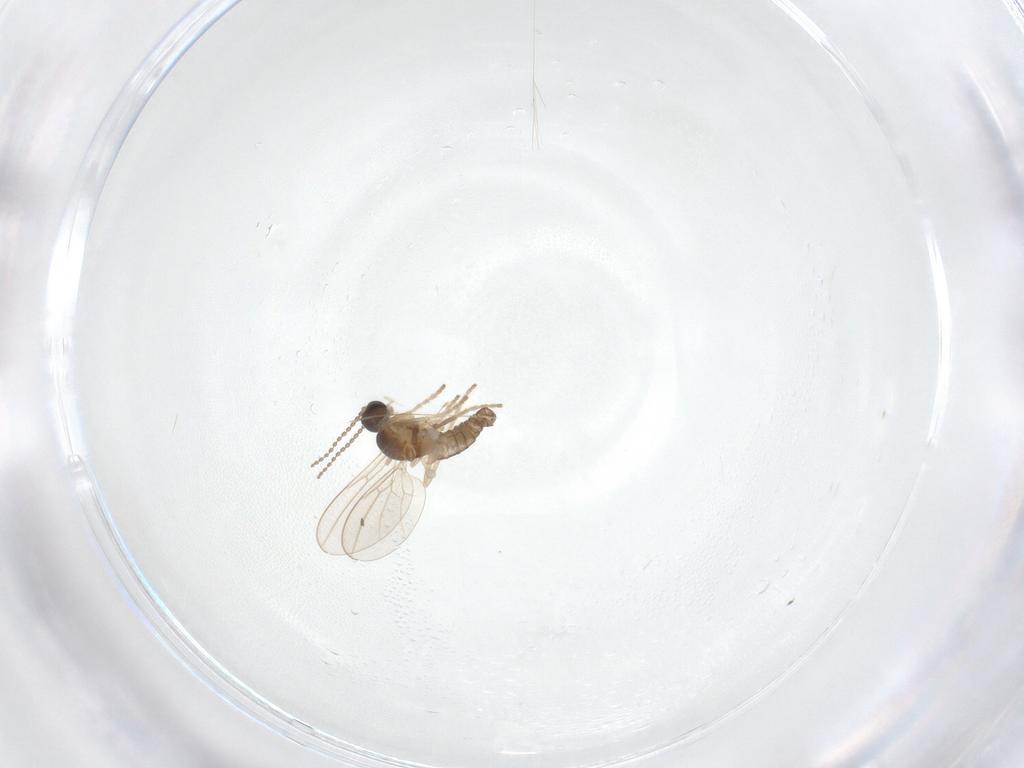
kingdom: Animalia
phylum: Arthropoda
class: Insecta
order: Diptera
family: Cecidomyiidae
